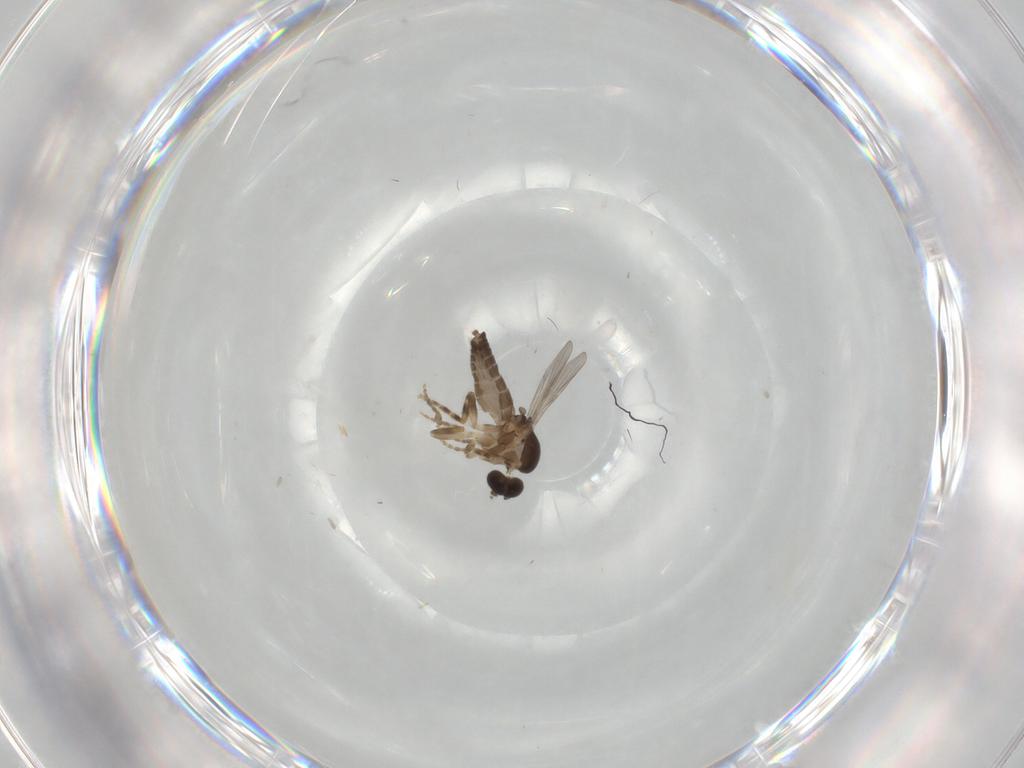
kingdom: Animalia
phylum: Arthropoda
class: Insecta
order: Diptera
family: Ceratopogonidae
